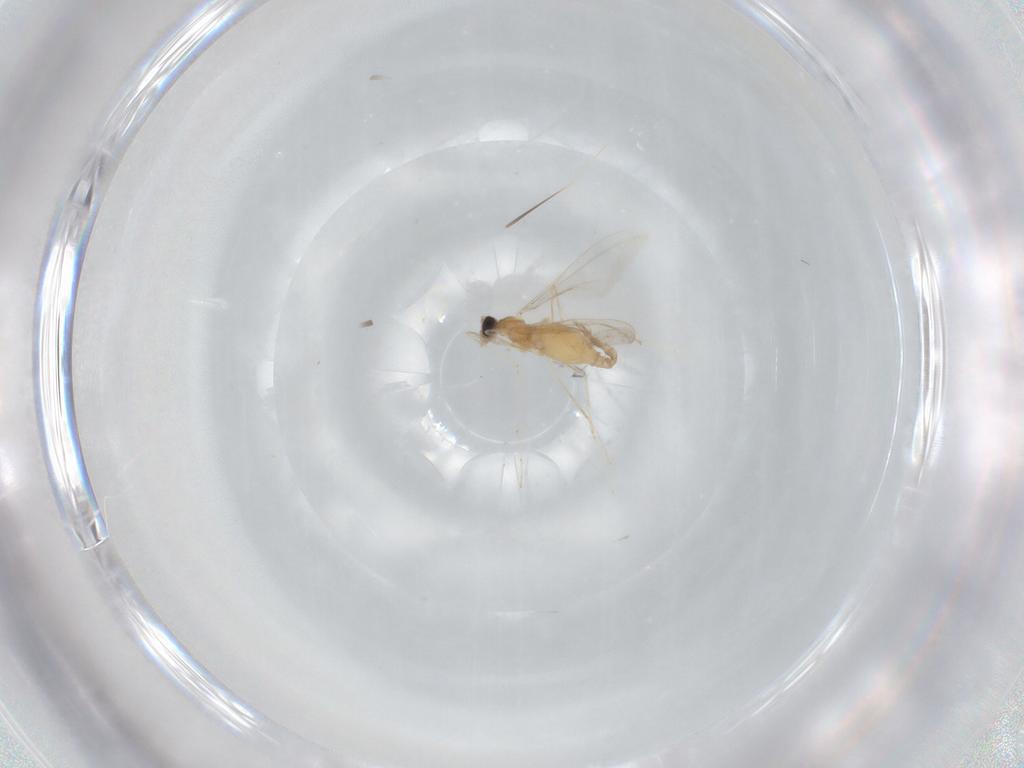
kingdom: Animalia
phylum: Arthropoda
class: Insecta
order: Diptera
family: Cecidomyiidae
